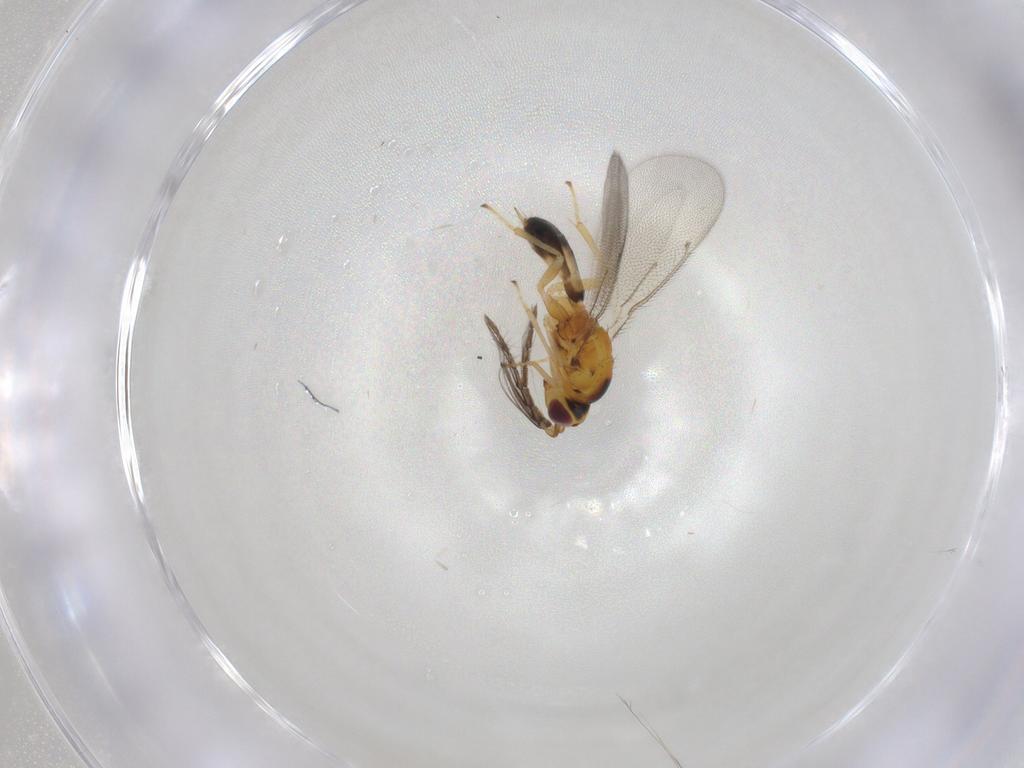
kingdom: Animalia
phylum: Arthropoda
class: Insecta
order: Hymenoptera
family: Eulophidae
